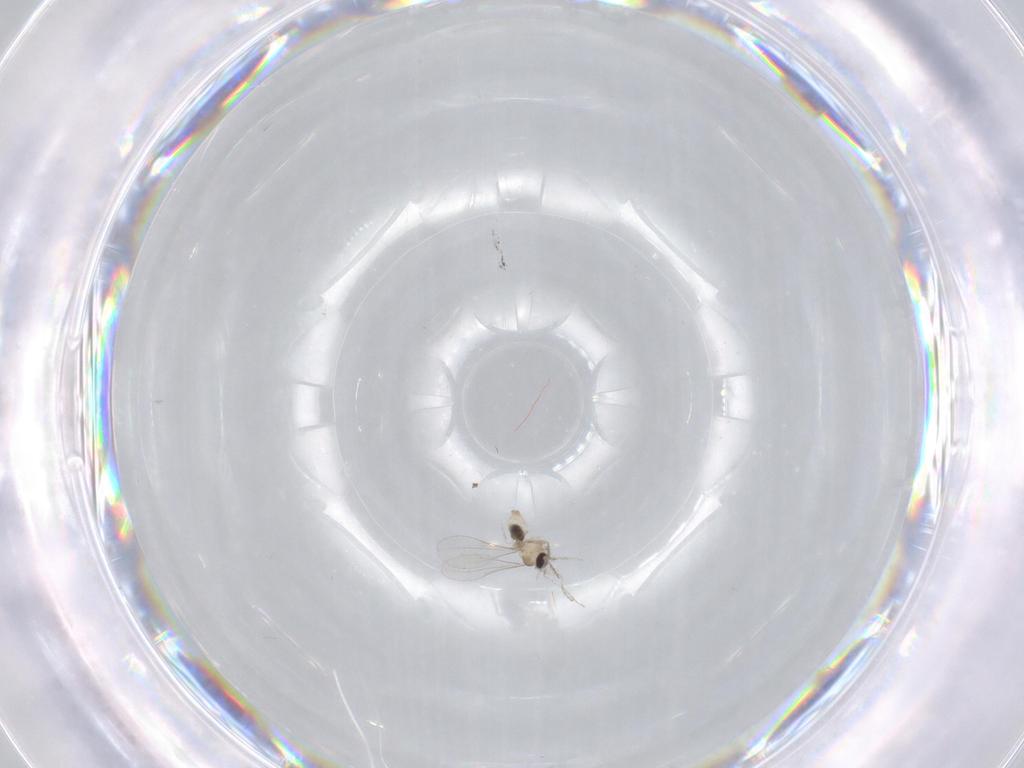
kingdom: Animalia
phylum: Arthropoda
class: Insecta
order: Diptera
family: Cecidomyiidae
